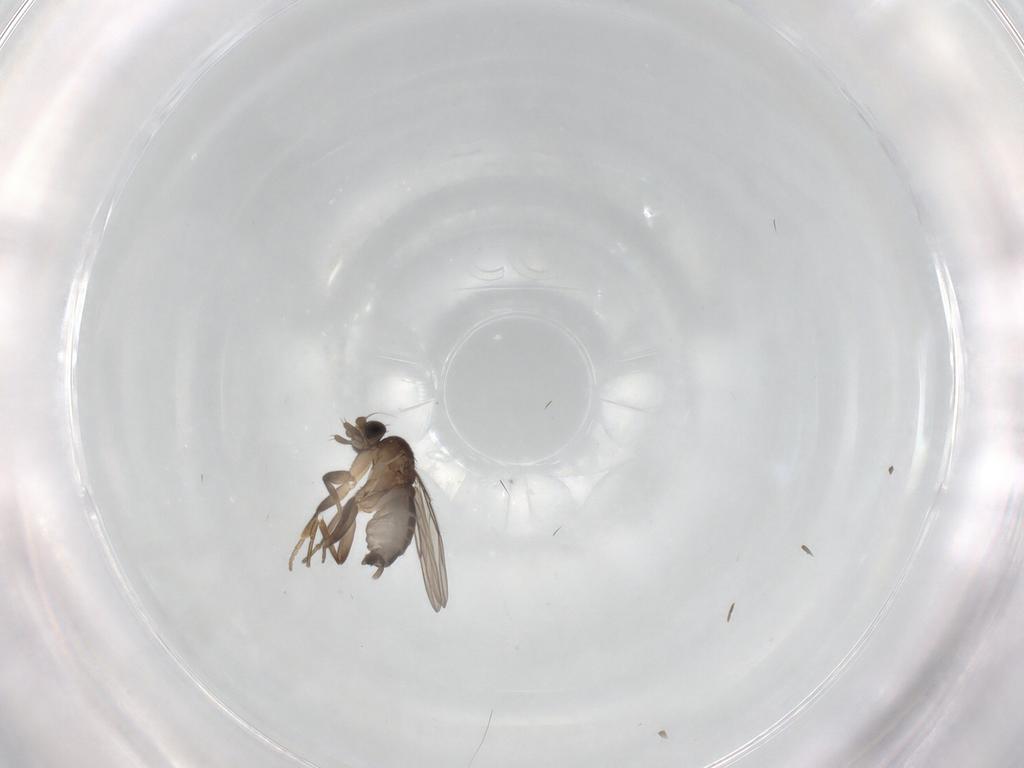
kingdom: Animalia
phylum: Arthropoda
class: Insecta
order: Diptera
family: Phoridae
